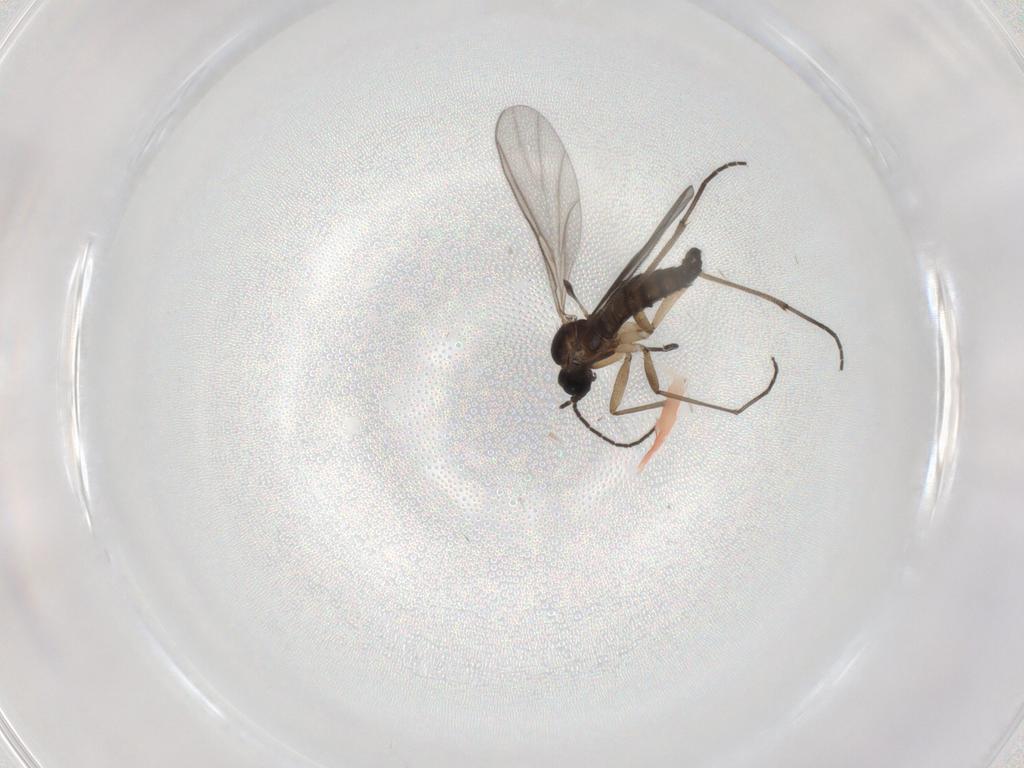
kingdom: Animalia
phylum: Arthropoda
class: Insecta
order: Diptera
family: Sciaridae
